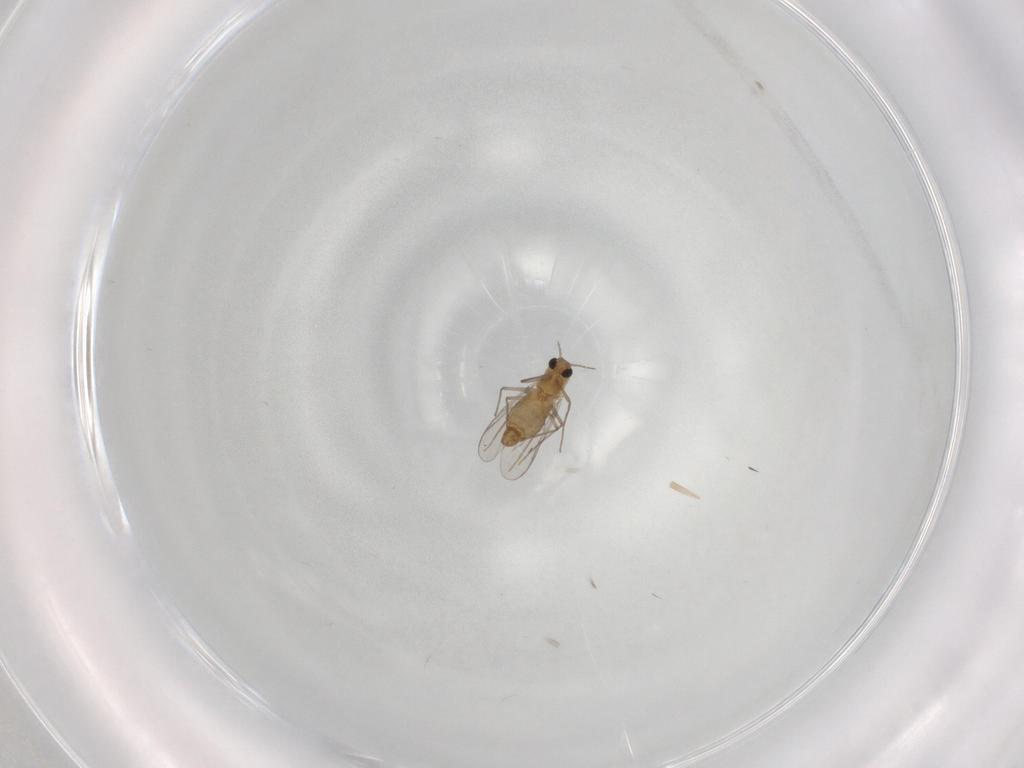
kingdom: Animalia
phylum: Arthropoda
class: Insecta
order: Diptera
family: Chironomidae
